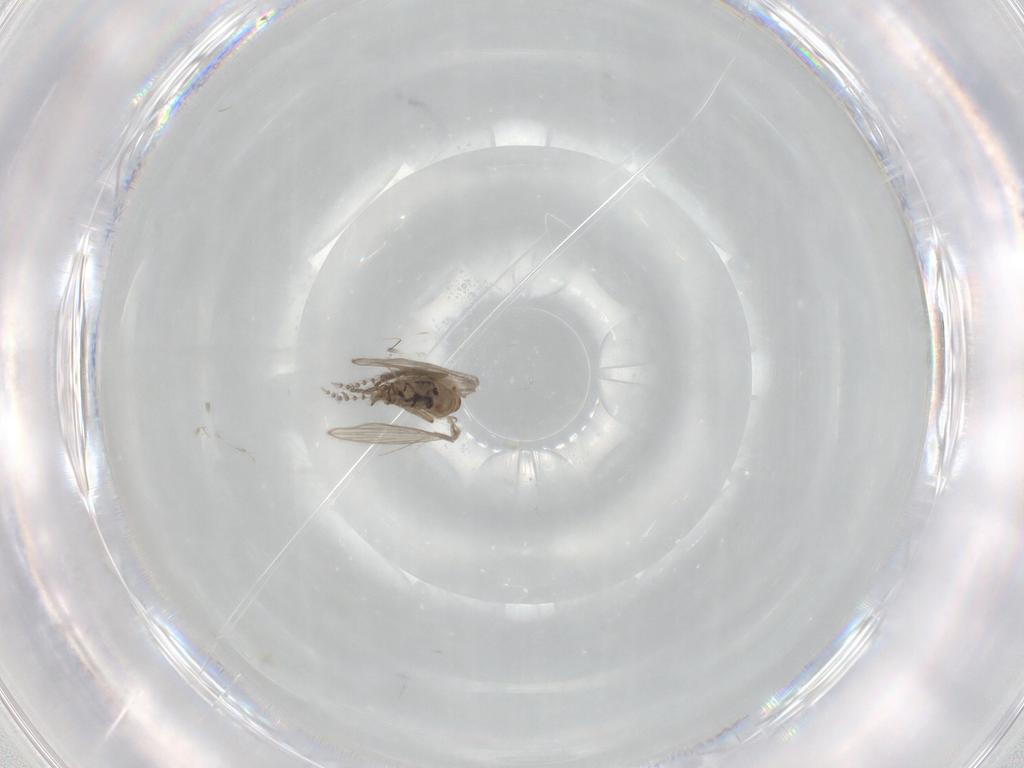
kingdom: Animalia
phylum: Arthropoda
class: Insecta
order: Diptera
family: Psychodidae
